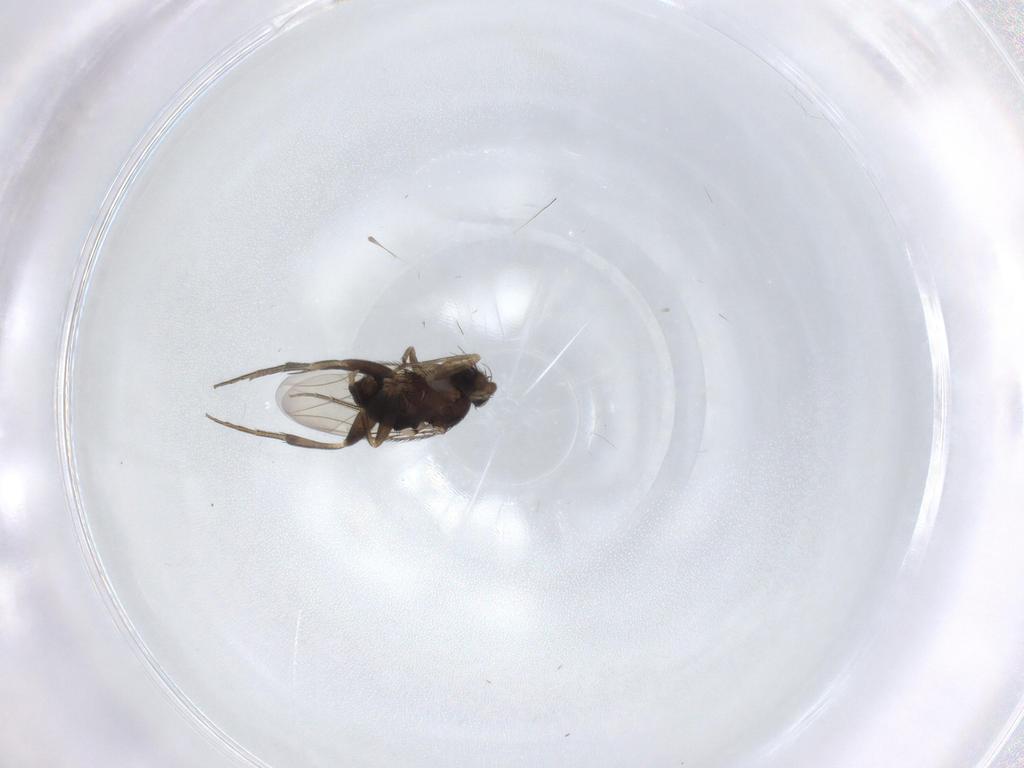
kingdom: Animalia
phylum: Arthropoda
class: Insecta
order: Diptera
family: Phoridae
